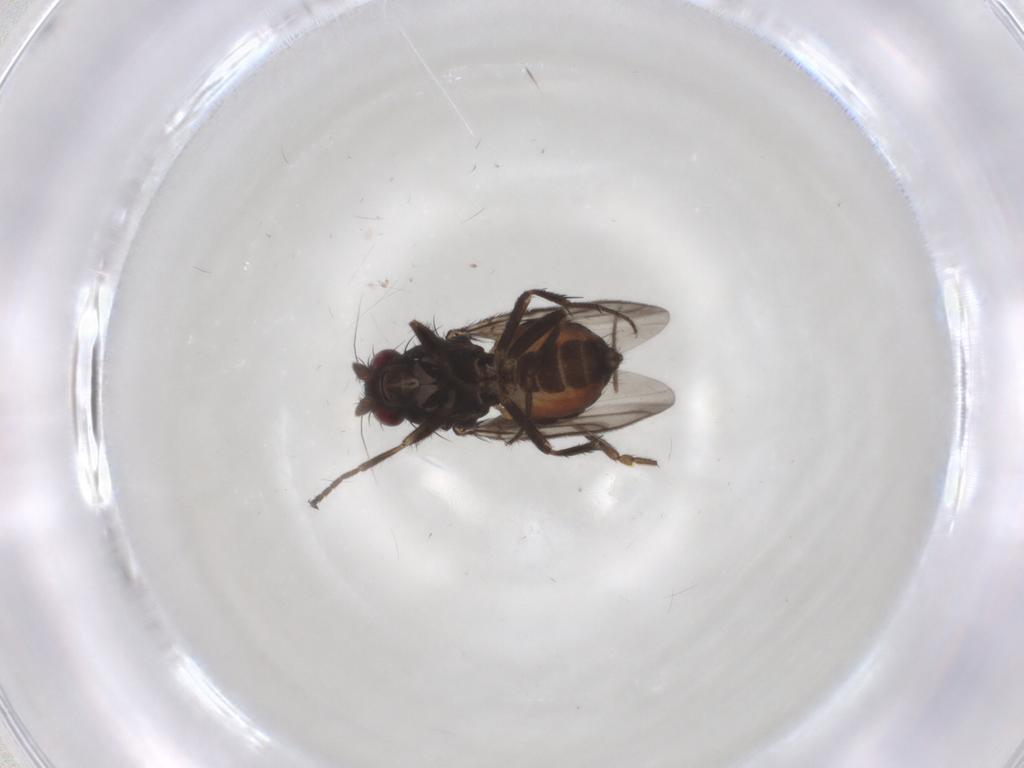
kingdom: Animalia
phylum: Arthropoda
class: Insecta
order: Diptera
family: Sphaeroceridae
